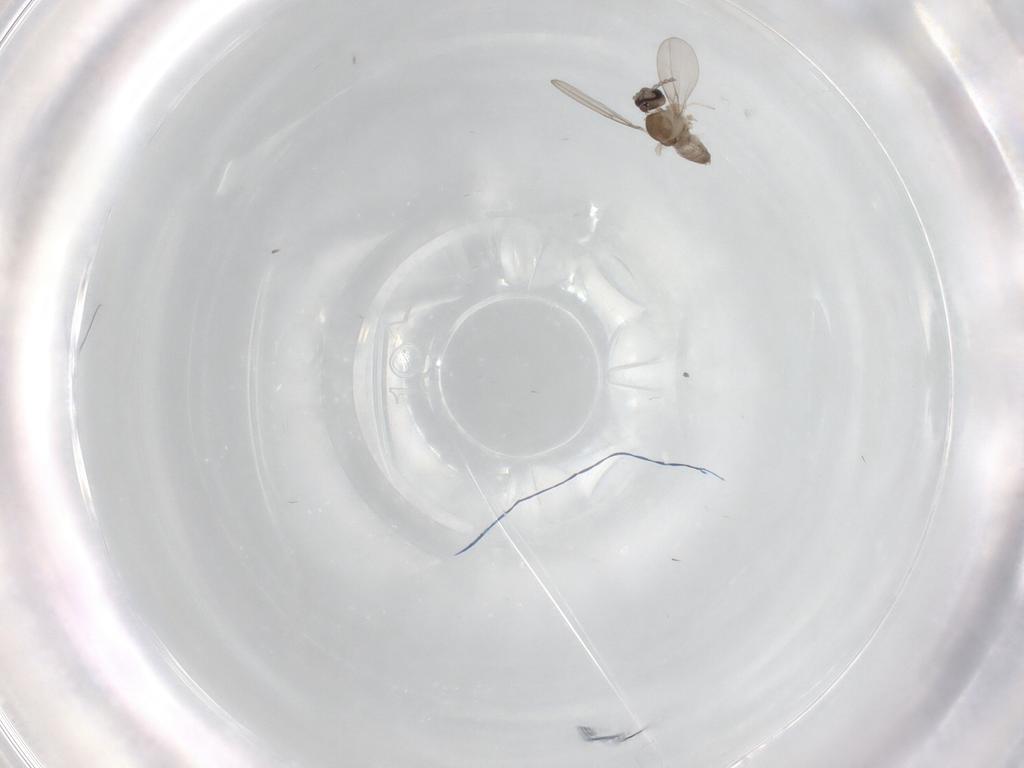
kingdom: Animalia
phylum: Arthropoda
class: Insecta
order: Diptera
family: Cecidomyiidae
